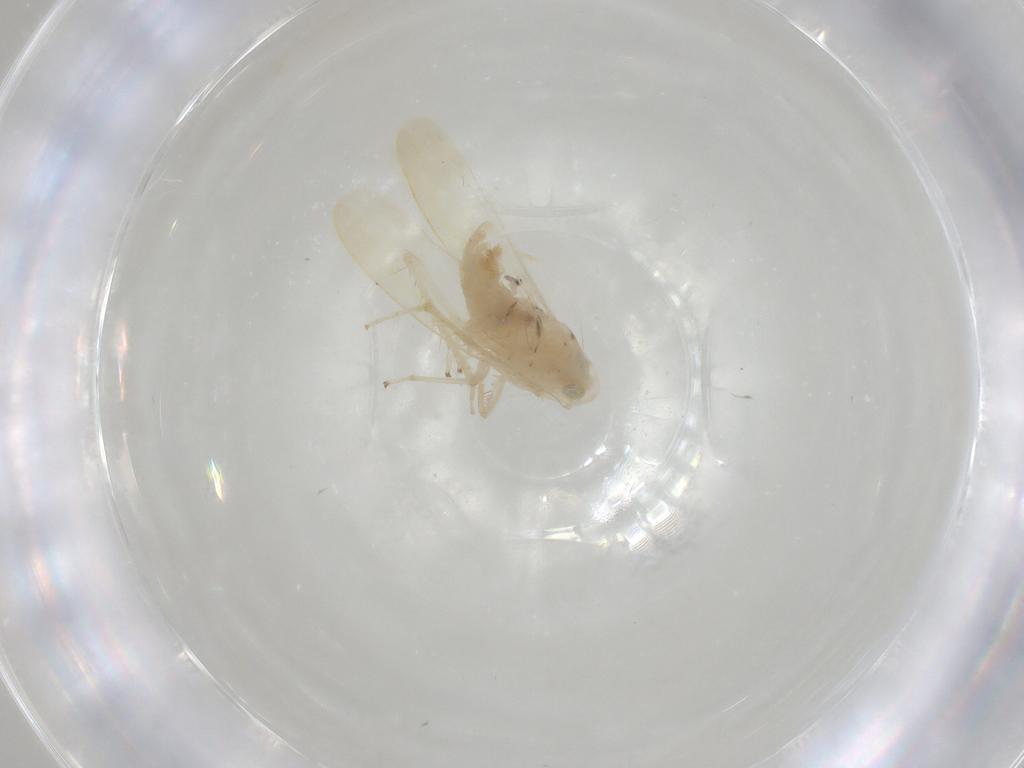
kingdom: Animalia
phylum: Arthropoda
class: Insecta
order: Hemiptera
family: Cicadellidae
